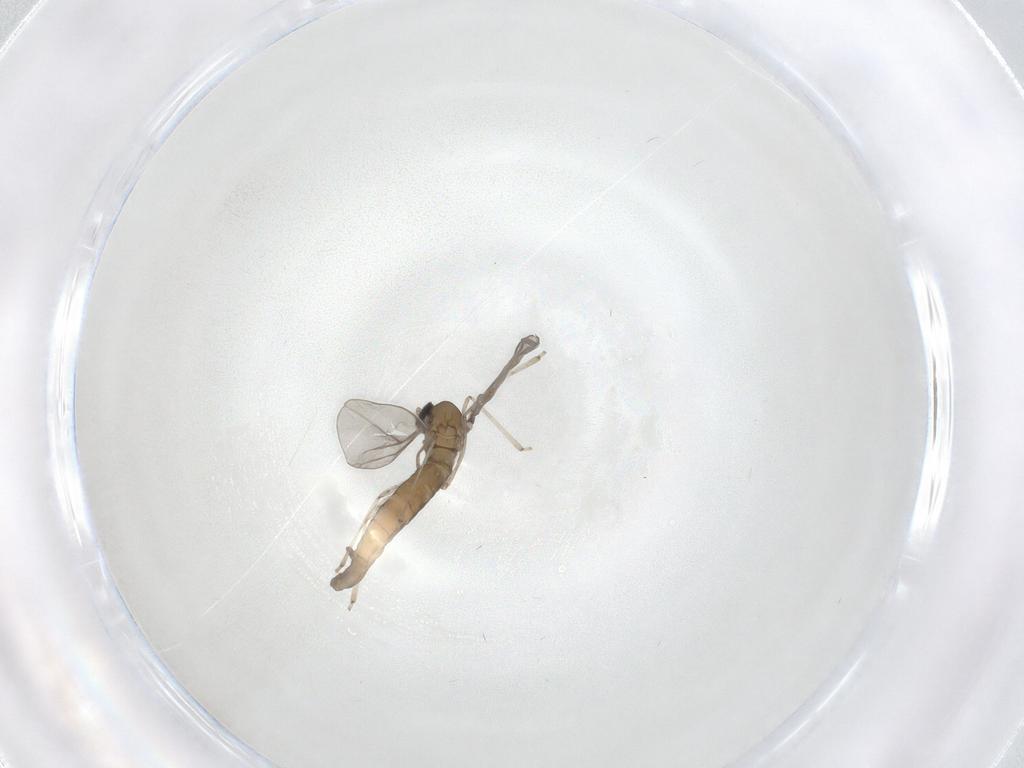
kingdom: Animalia
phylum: Arthropoda
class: Insecta
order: Diptera
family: Cecidomyiidae
